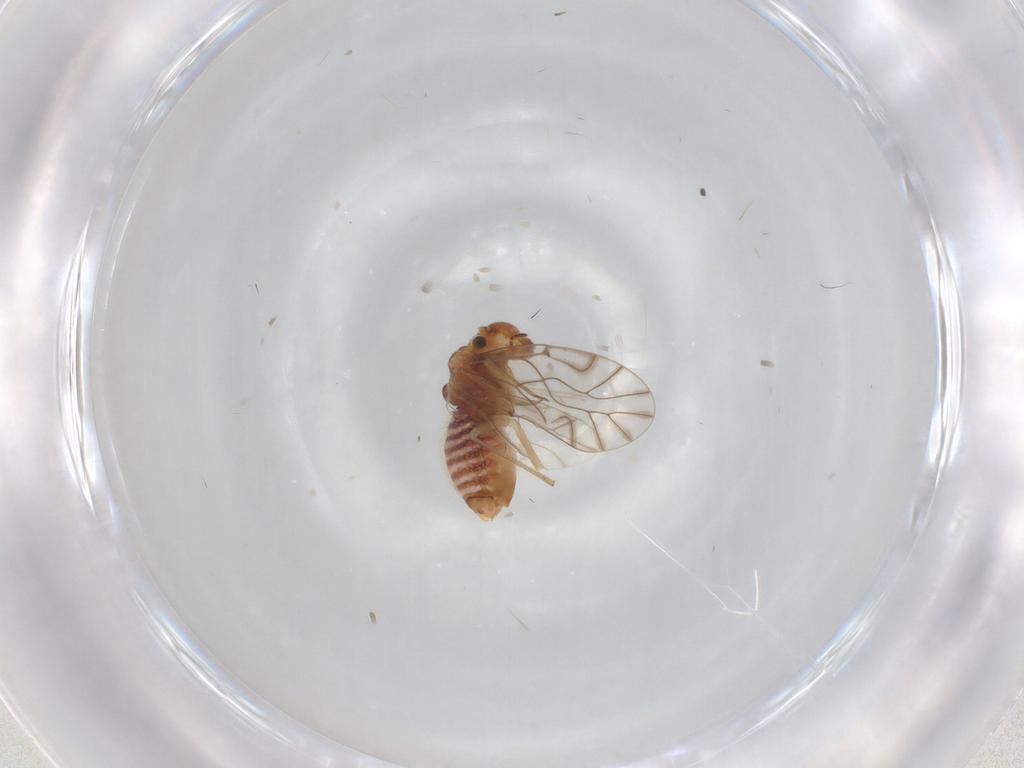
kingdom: Animalia
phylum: Arthropoda
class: Insecta
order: Psocodea
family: Lachesillidae
